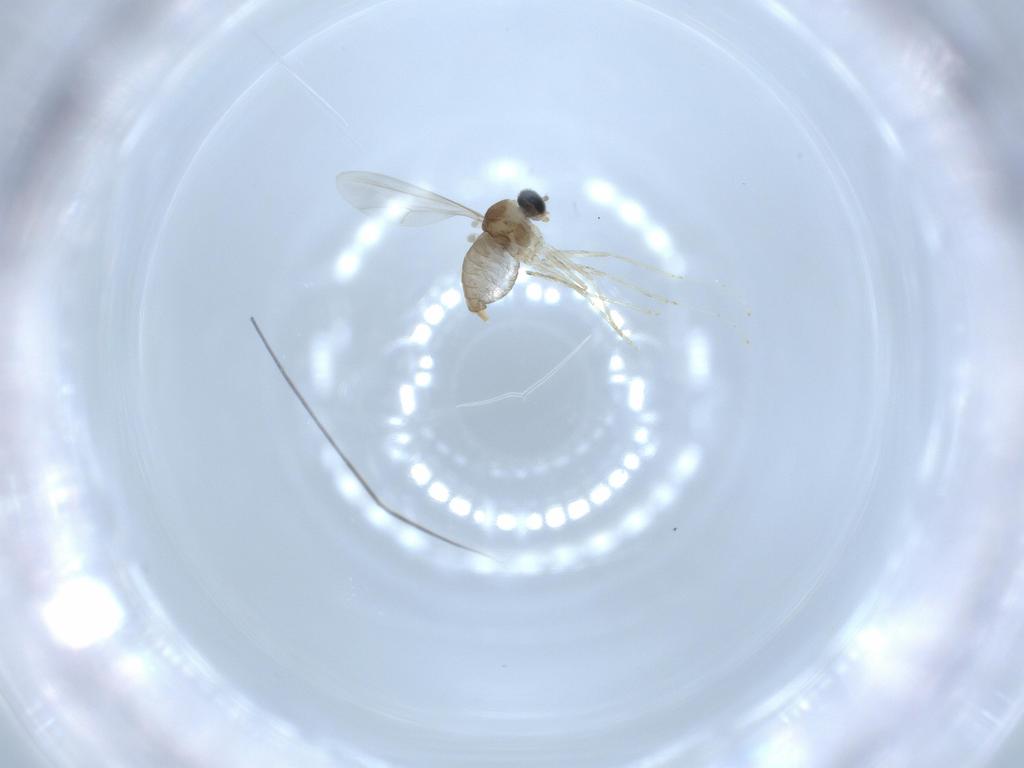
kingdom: Animalia
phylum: Arthropoda
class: Insecta
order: Diptera
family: Cecidomyiidae
